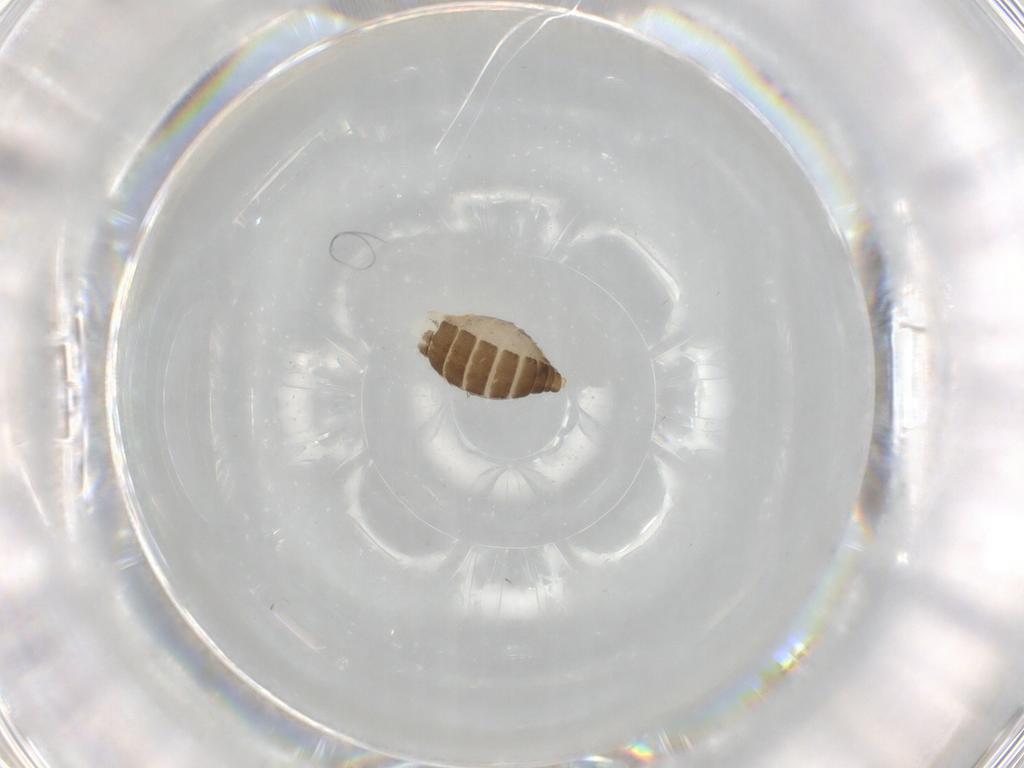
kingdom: Animalia
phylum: Arthropoda
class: Insecta
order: Diptera
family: Ceratopogonidae
